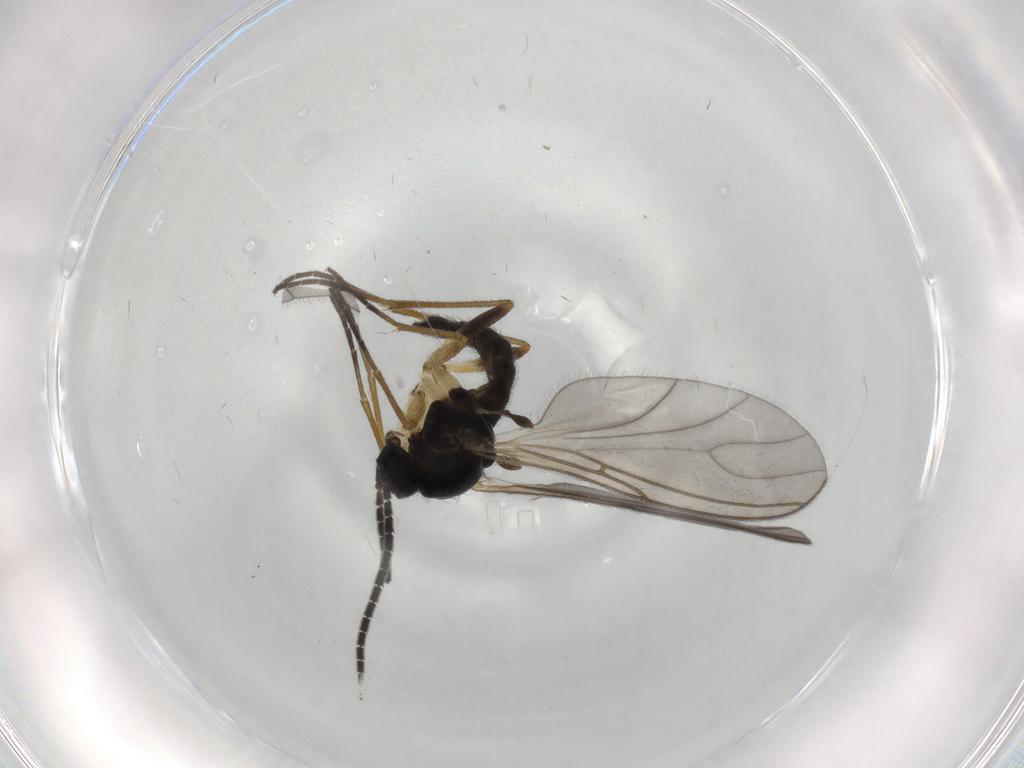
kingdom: Animalia
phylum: Arthropoda
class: Insecta
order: Diptera
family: Sciaridae
